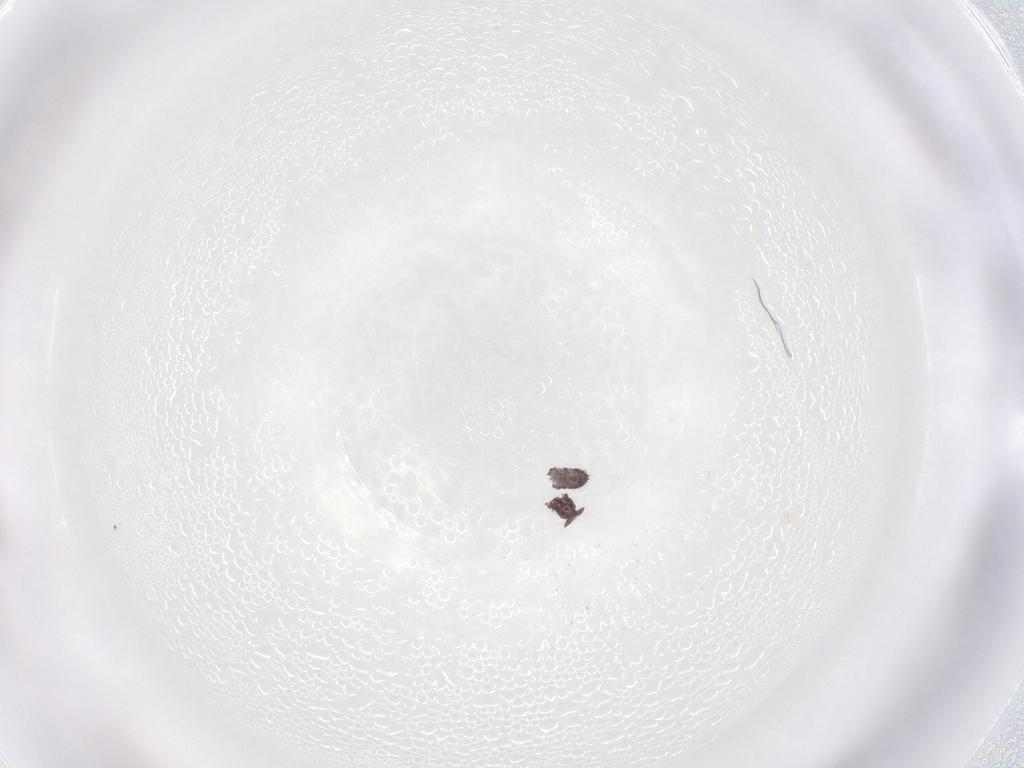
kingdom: Animalia
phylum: Arthropoda
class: Collembola
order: Poduromorpha
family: Hypogastruridae
